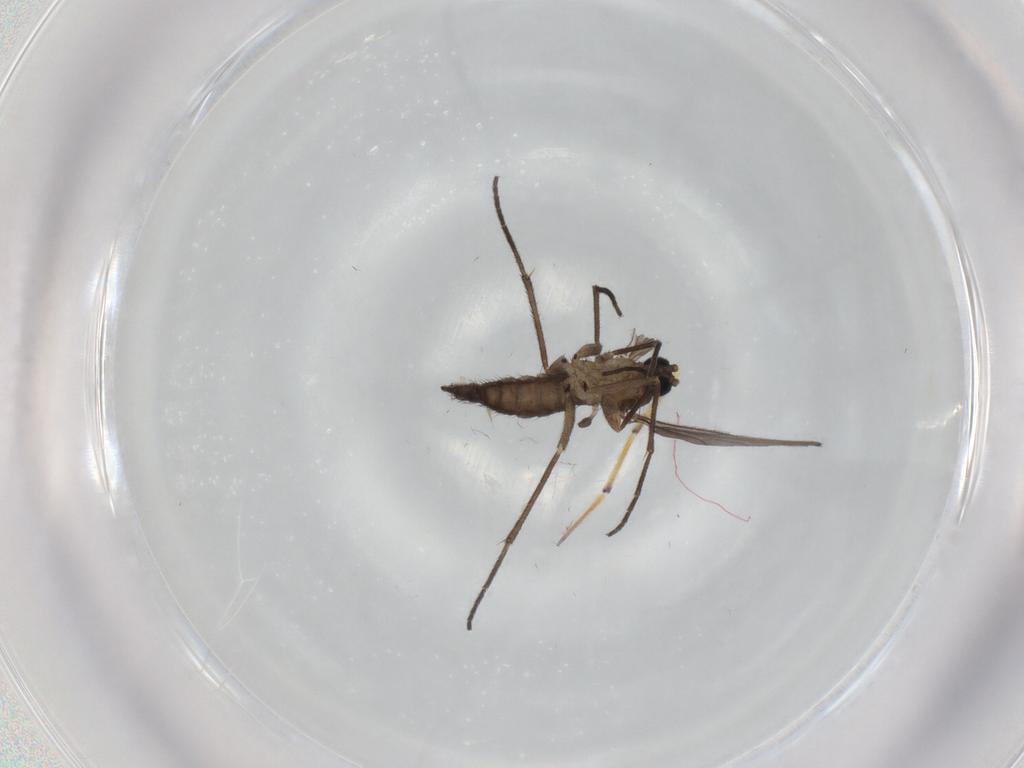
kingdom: Animalia
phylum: Arthropoda
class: Insecta
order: Diptera
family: Sciaridae
